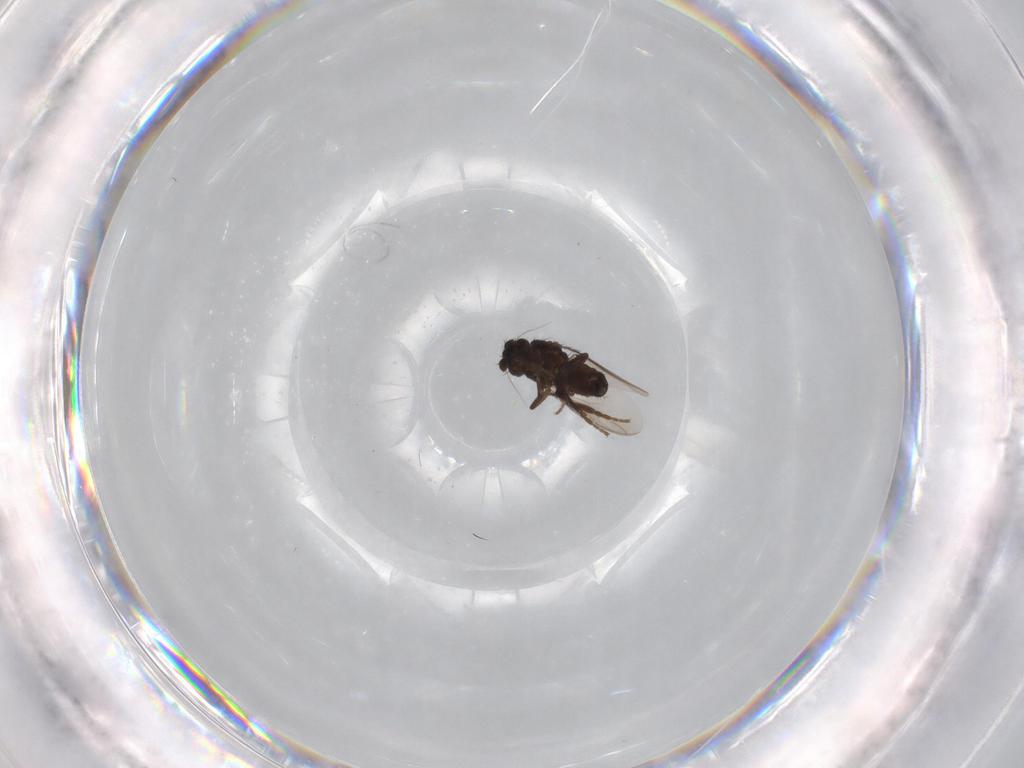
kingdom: Animalia
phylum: Arthropoda
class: Insecta
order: Diptera
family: Sphaeroceridae
